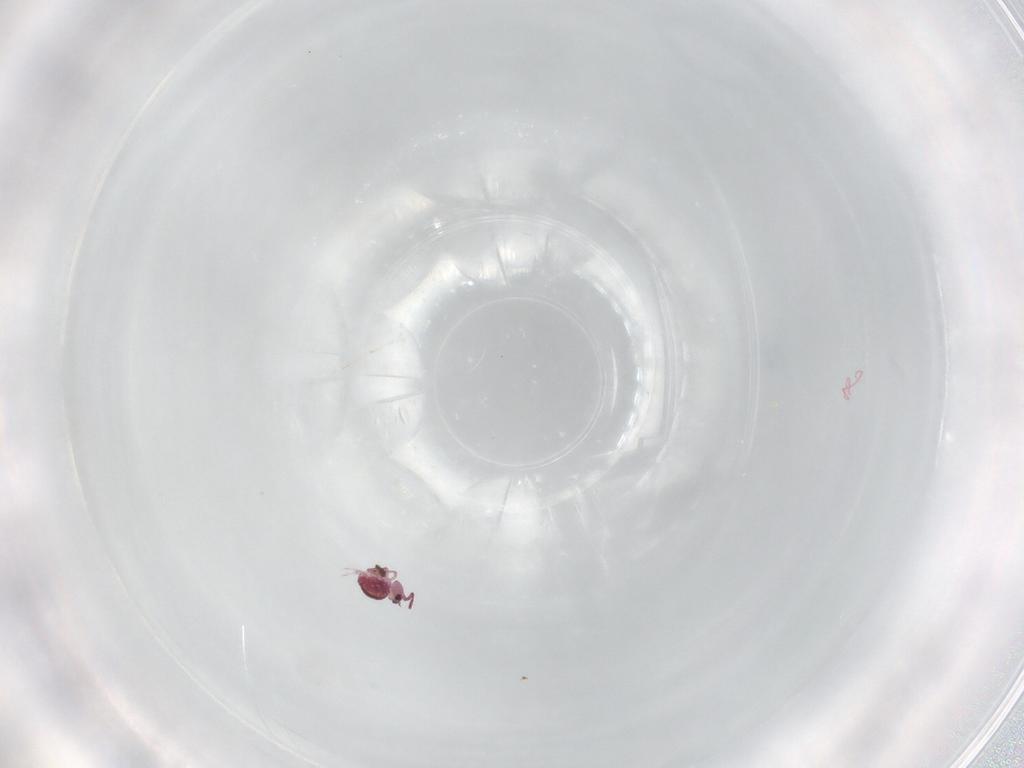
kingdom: Animalia
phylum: Arthropoda
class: Collembola
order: Symphypleona
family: Sminthurididae
